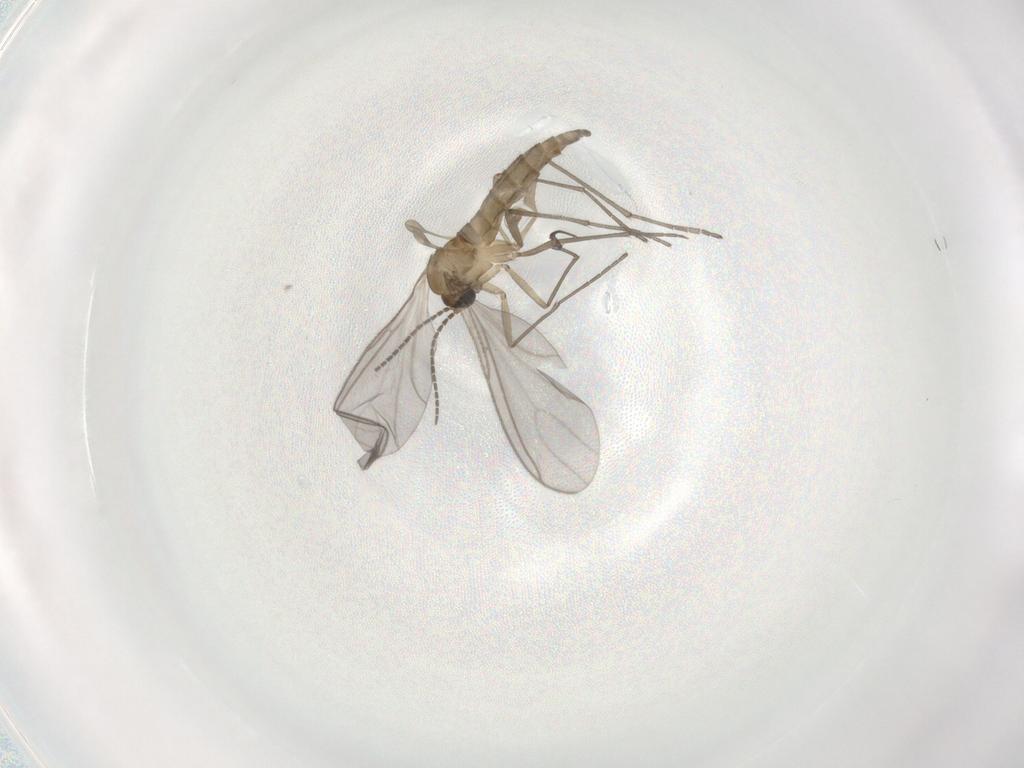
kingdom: Animalia
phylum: Arthropoda
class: Insecta
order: Diptera
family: Sciaridae
